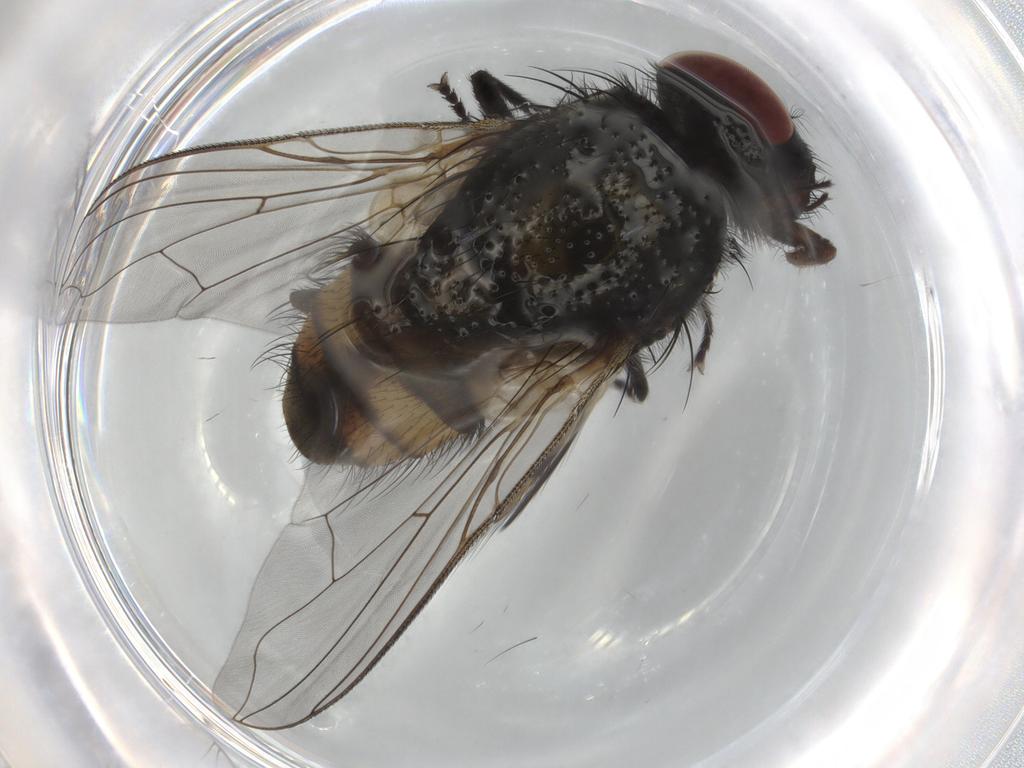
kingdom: Animalia
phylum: Arthropoda
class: Insecta
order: Diptera
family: Muscidae
